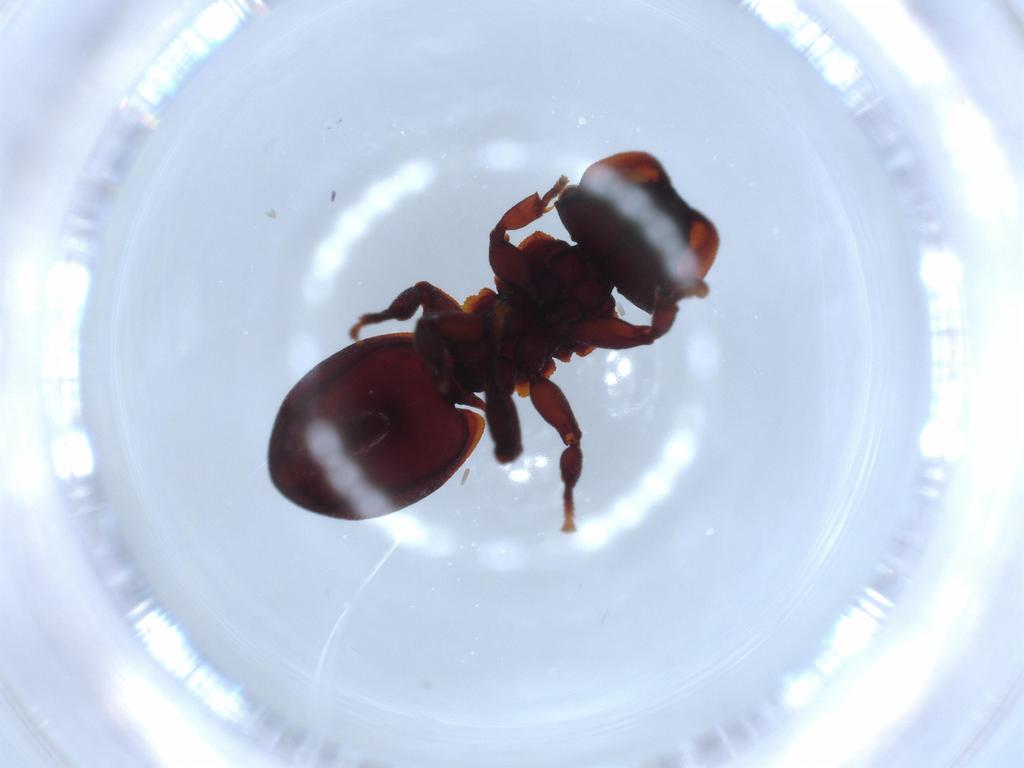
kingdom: Animalia
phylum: Arthropoda
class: Insecta
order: Hymenoptera
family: Formicidae
